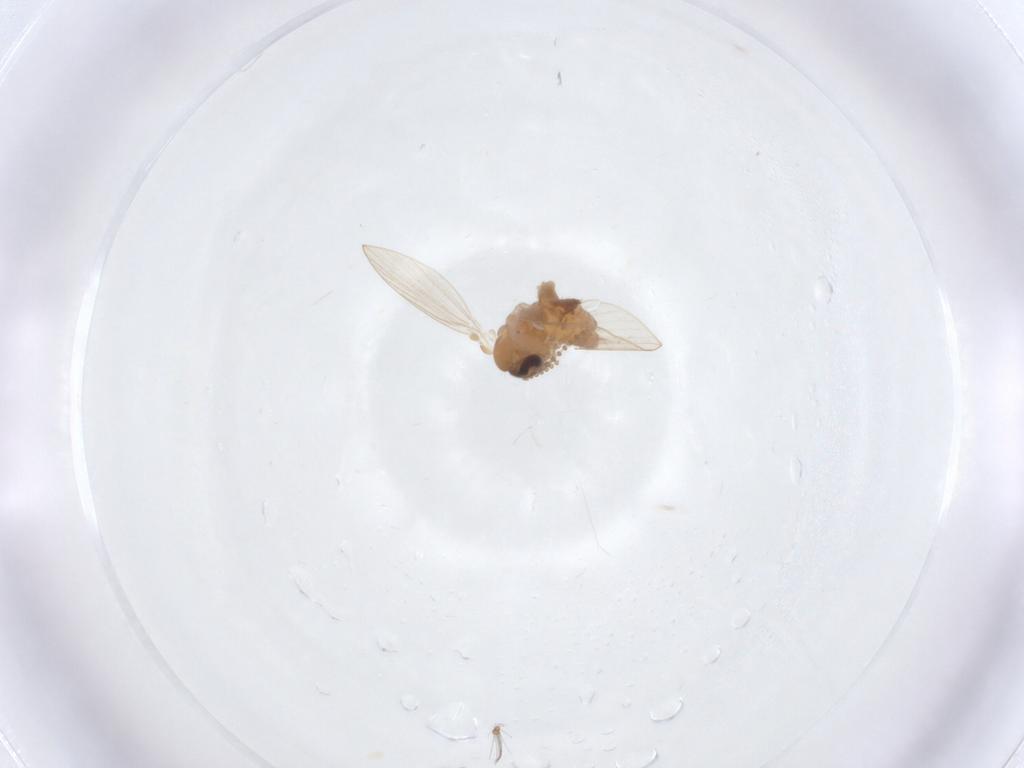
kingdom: Animalia
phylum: Arthropoda
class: Insecta
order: Diptera
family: Psychodidae
